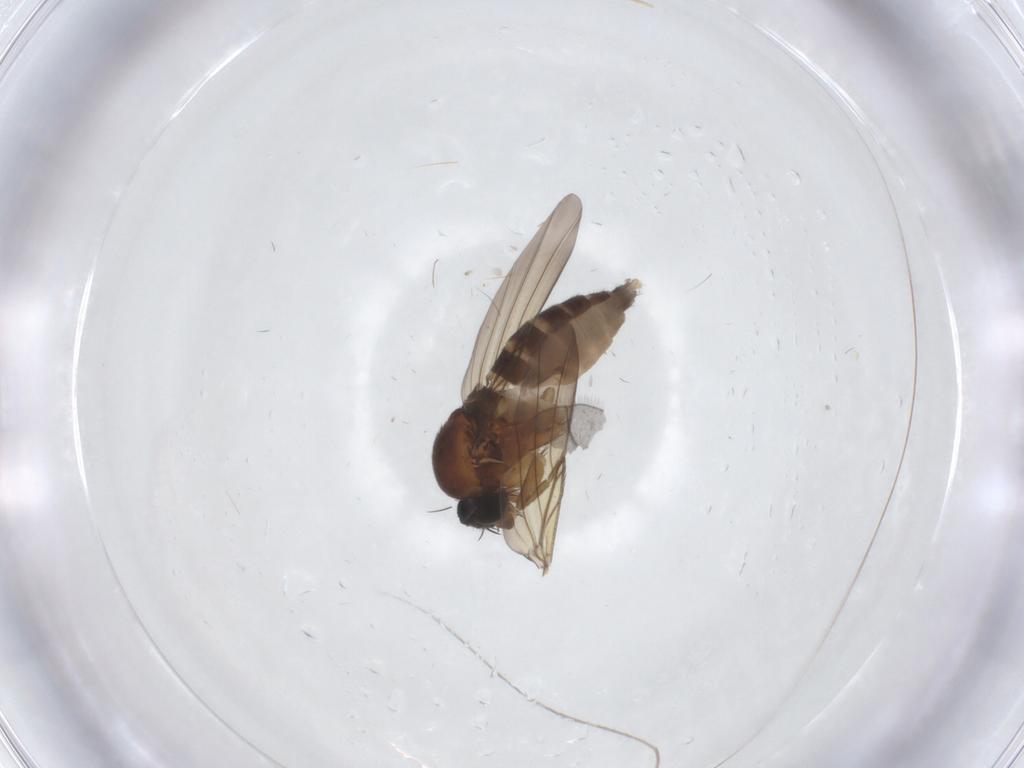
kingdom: Animalia
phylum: Arthropoda
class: Insecta
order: Diptera
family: Phoridae
